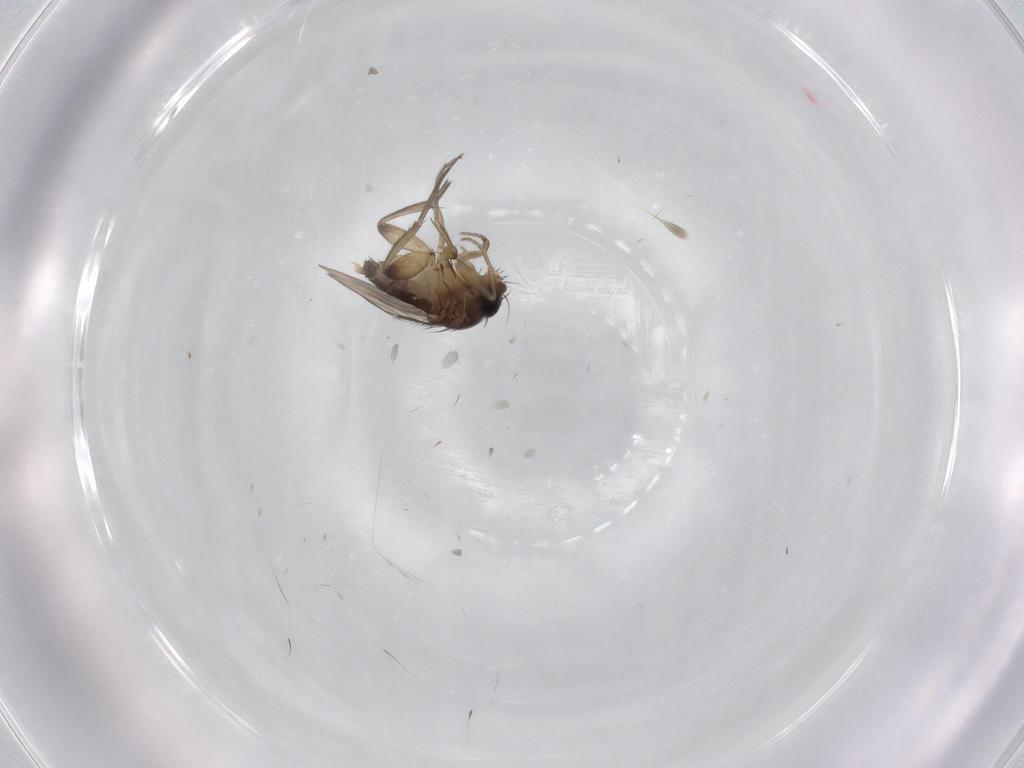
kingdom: Animalia
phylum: Arthropoda
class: Insecta
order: Diptera
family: Phoridae
